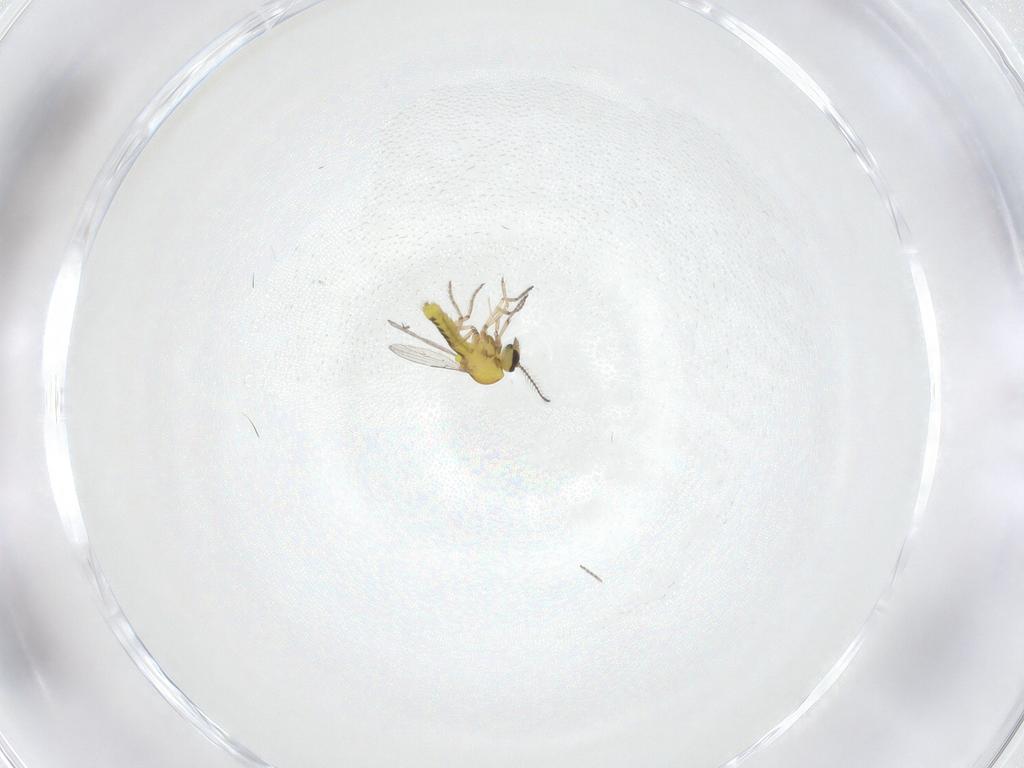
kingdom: Animalia
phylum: Arthropoda
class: Insecta
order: Diptera
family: Ceratopogonidae
